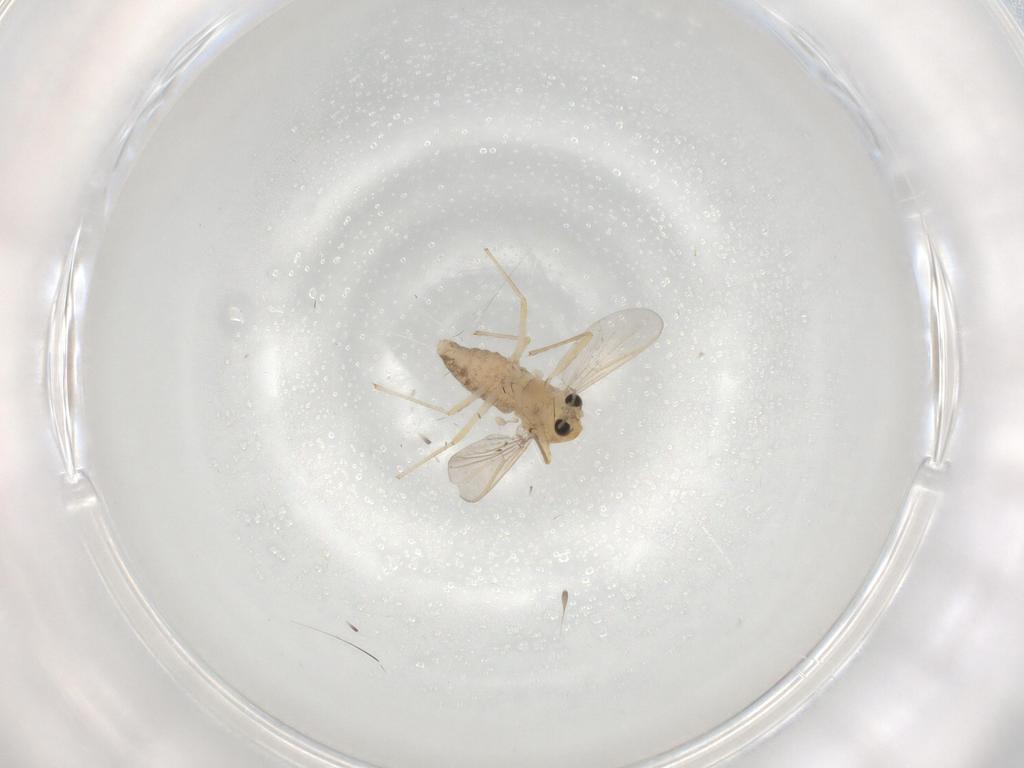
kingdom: Animalia
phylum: Arthropoda
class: Insecta
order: Diptera
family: Chironomidae
